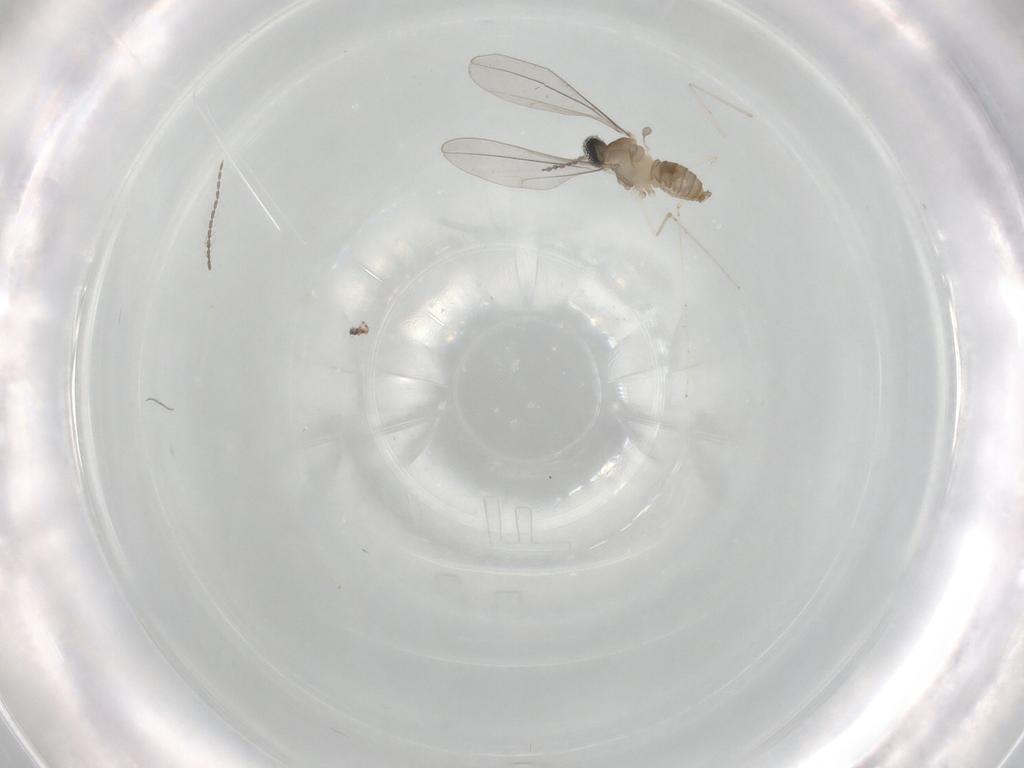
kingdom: Animalia
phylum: Arthropoda
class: Insecta
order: Diptera
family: Cecidomyiidae
